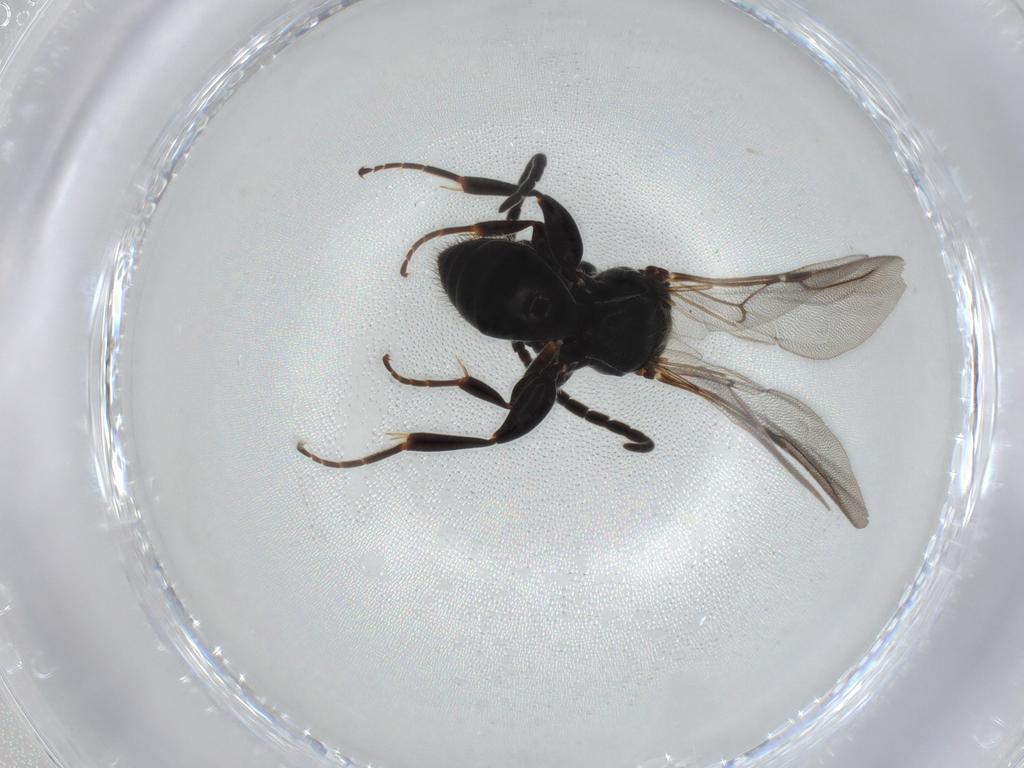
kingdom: Animalia
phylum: Arthropoda
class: Insecta
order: Hymenoptera
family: Braconidae
